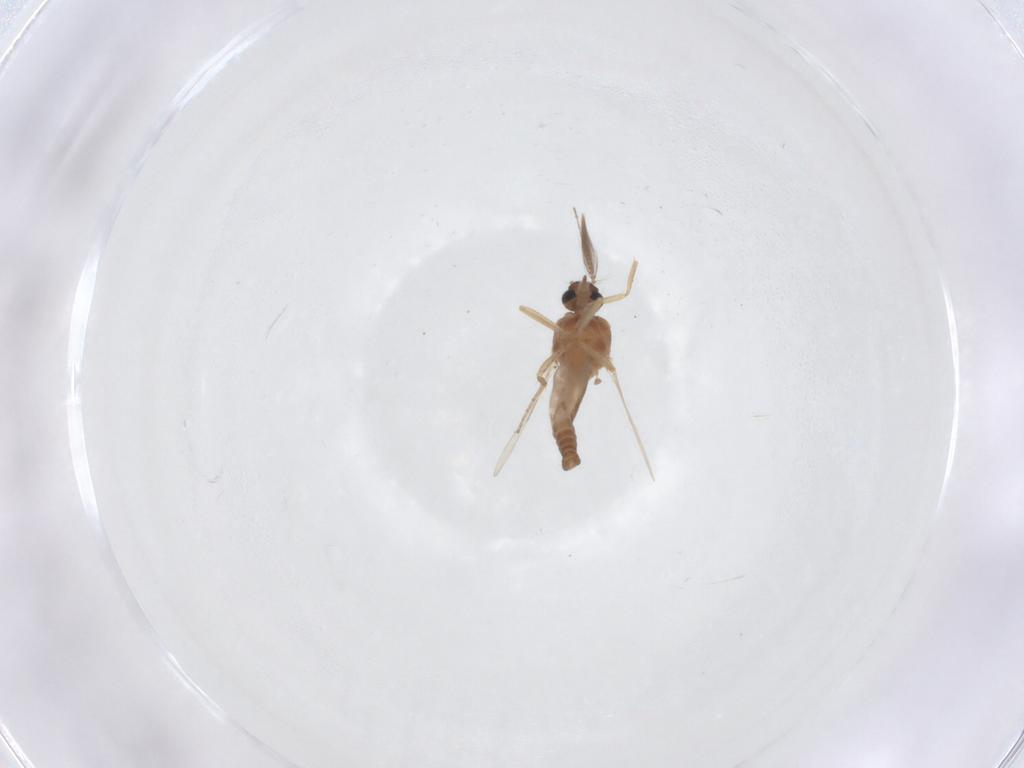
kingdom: Animalia
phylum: Arthropoda
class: Insecta
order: Diptera
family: Ceratopogonidae
